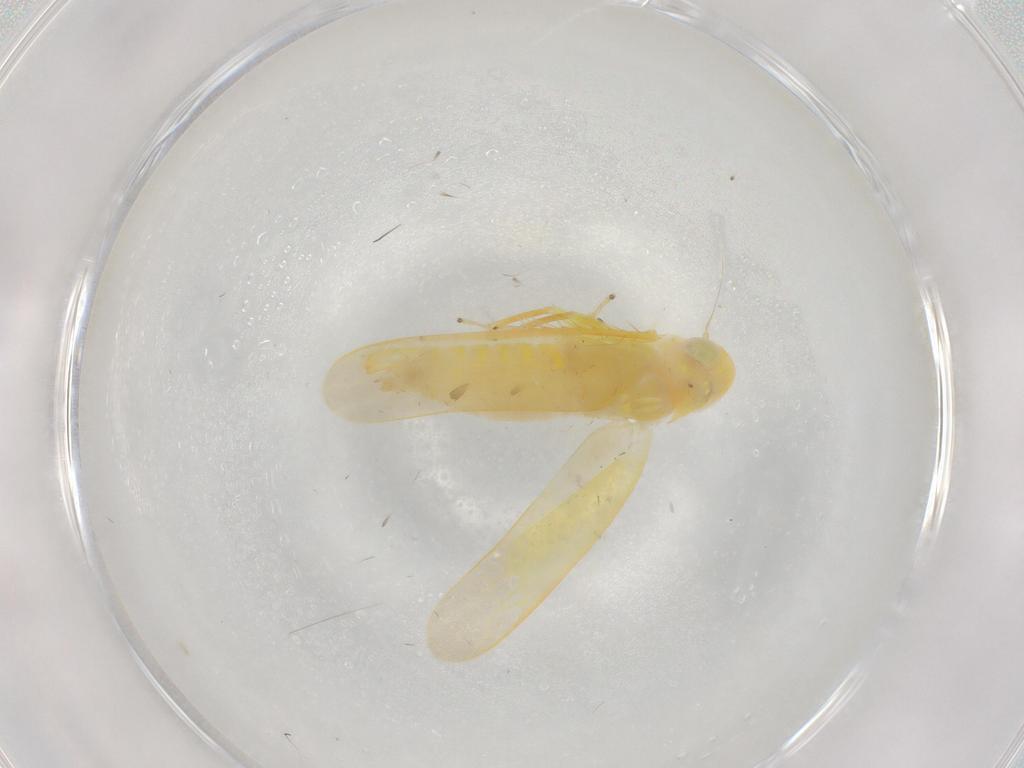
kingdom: Animalia
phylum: Arthropoda
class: Insecta
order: Hemiptera
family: Cicadellidae
